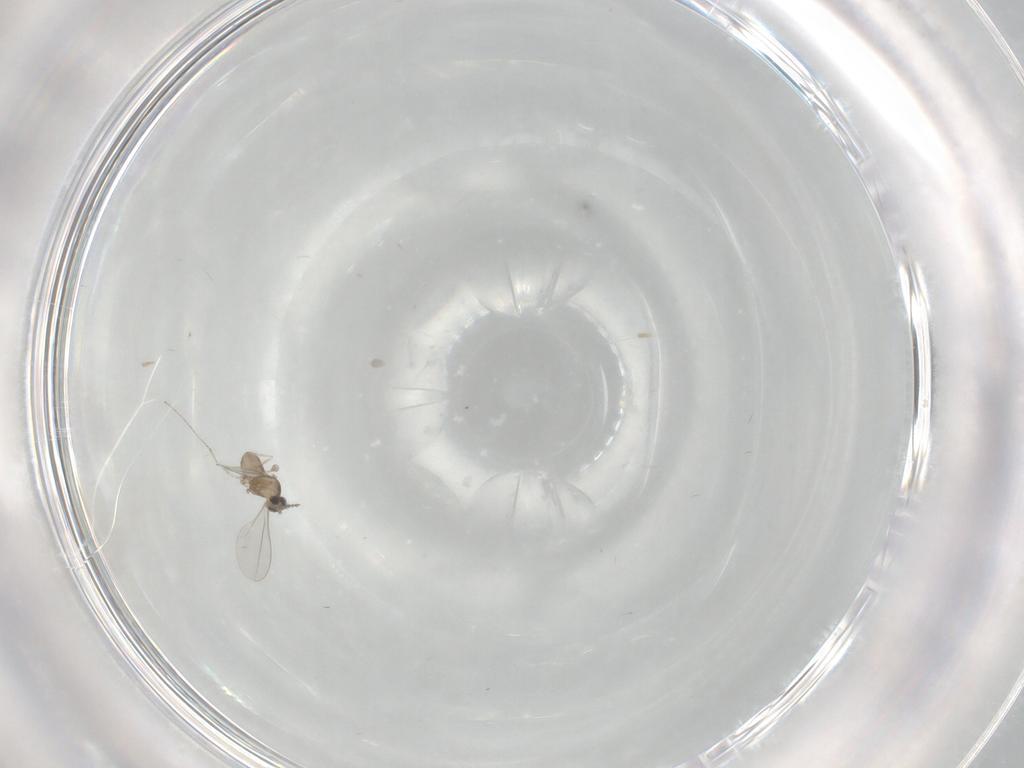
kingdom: Animalia
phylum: Arthropoda
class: Insecta
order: Diptera
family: Cecidomyiidae
